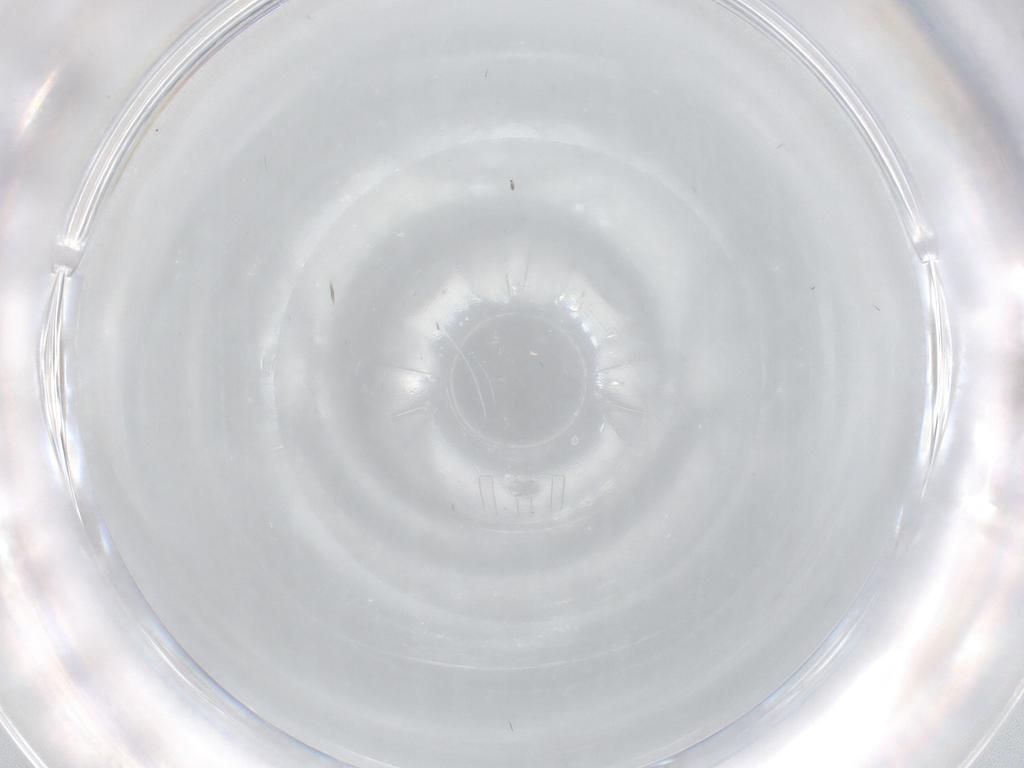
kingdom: Animalia
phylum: Arthropoda
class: Insecta
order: Diptera
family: Cecidomyiidae
